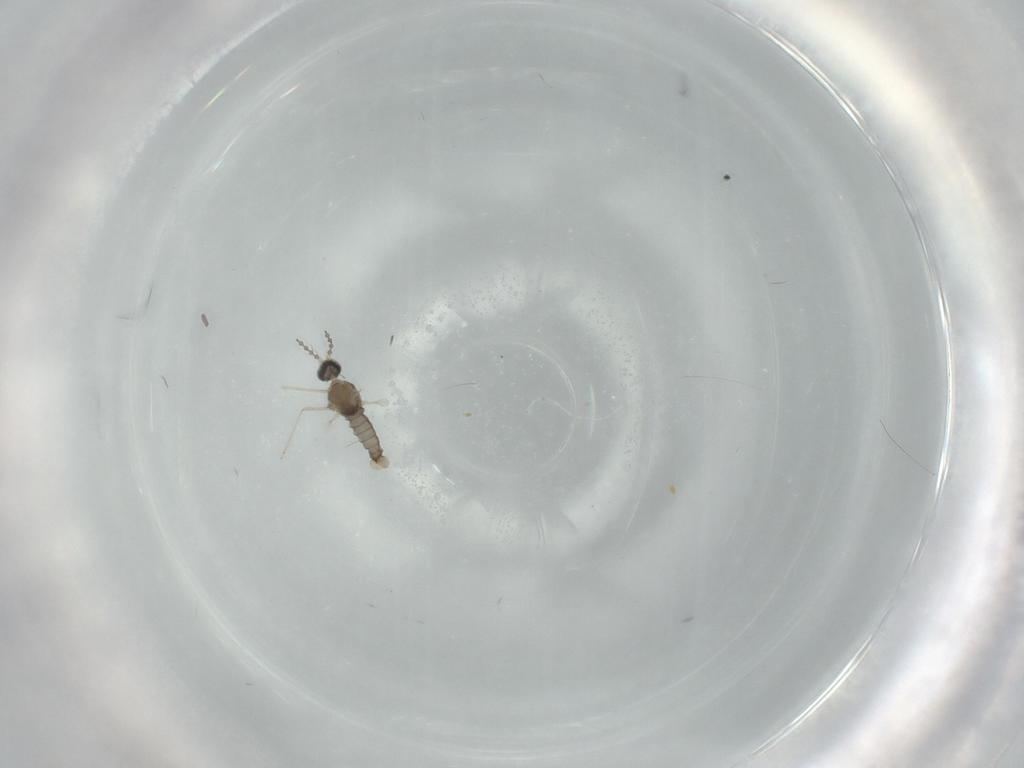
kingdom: Animalia
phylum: Arthropoda
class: Insecta
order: Diptera
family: Cecidomyiidae
